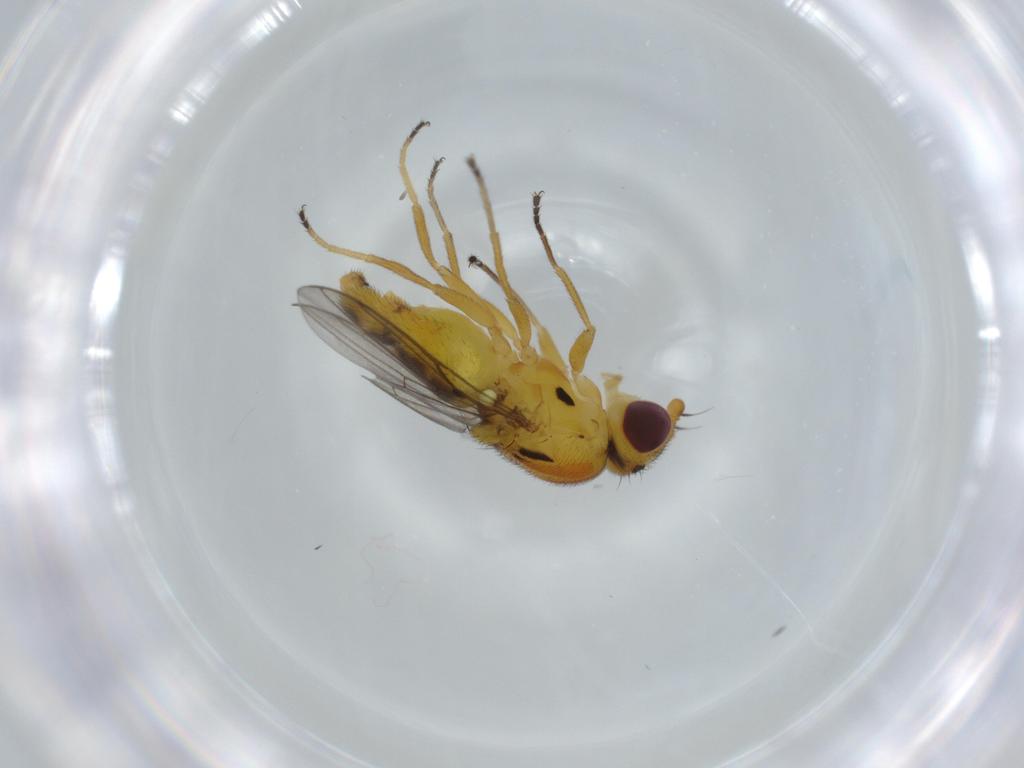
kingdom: Animalia
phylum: Arthropoda
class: Insecta
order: Diptera
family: Chloropidae
